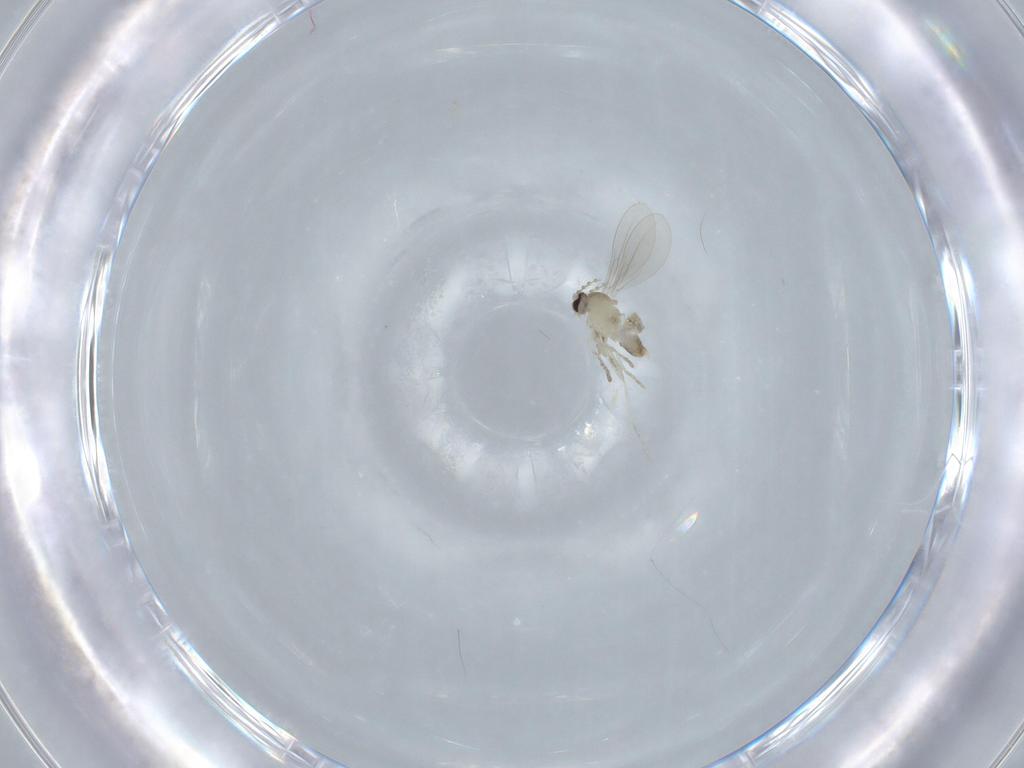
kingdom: Animalia
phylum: Arthropoda
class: Insecta
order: Diptera
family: Cecidomyiidae
